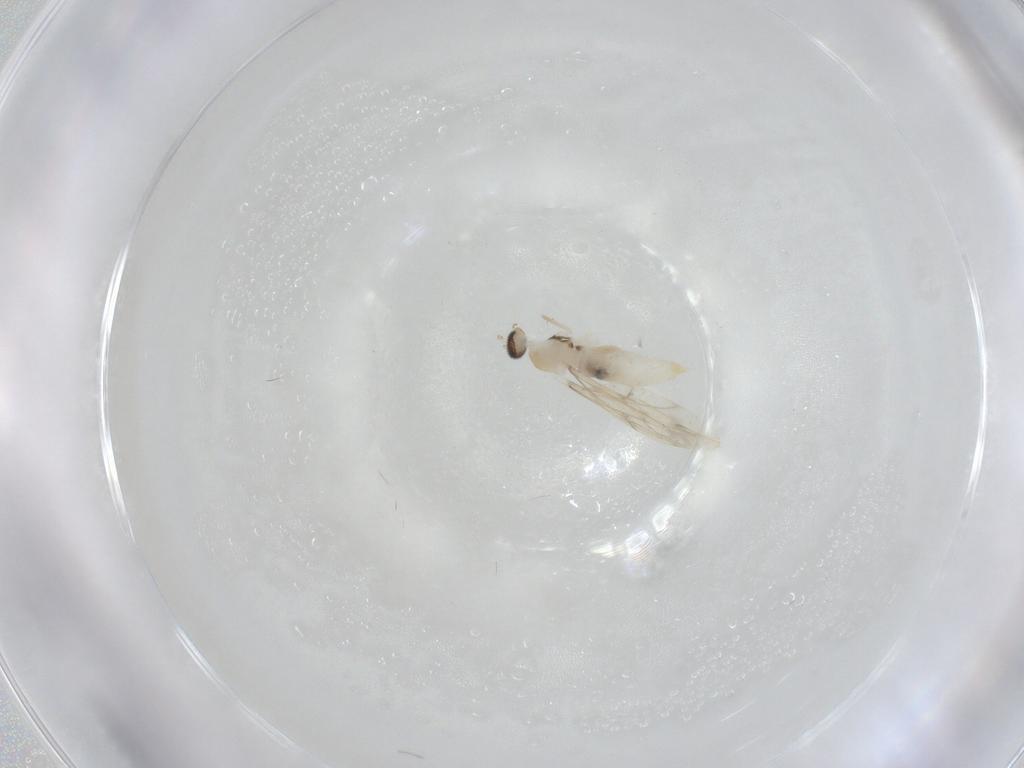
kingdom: Animalia
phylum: Arthropoda
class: Insecta
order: Diptera
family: Cecidomyiidae
